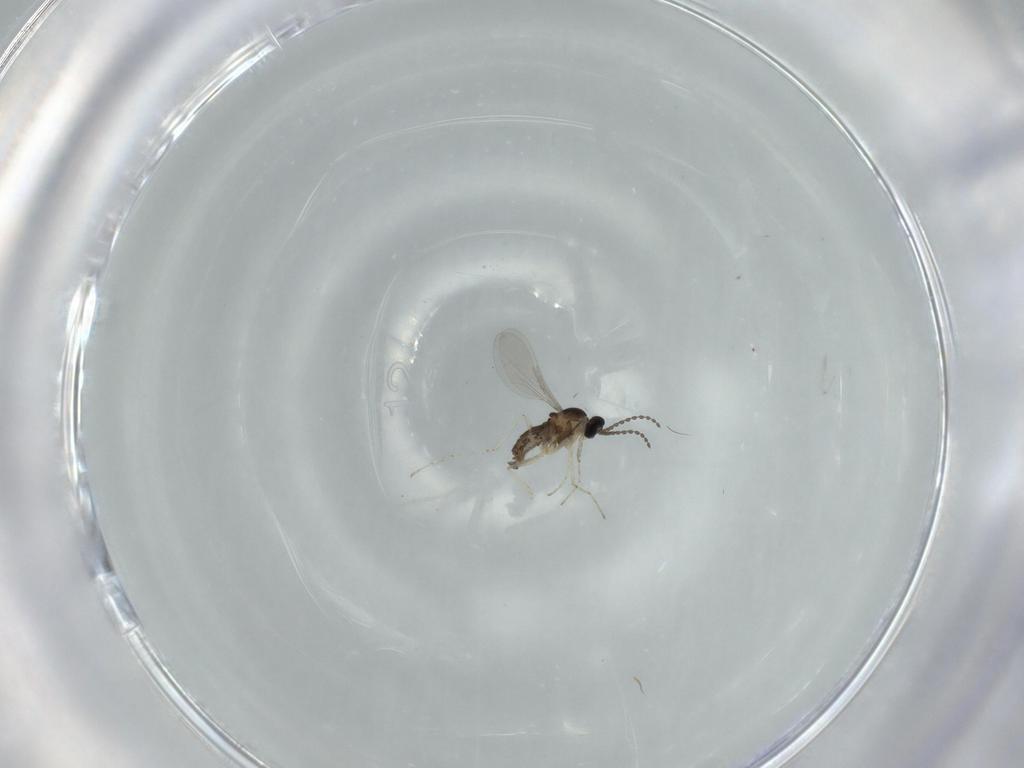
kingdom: Animalia
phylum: Arthropoda
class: Insecta
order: Diptera
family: Cecidomyiidae
